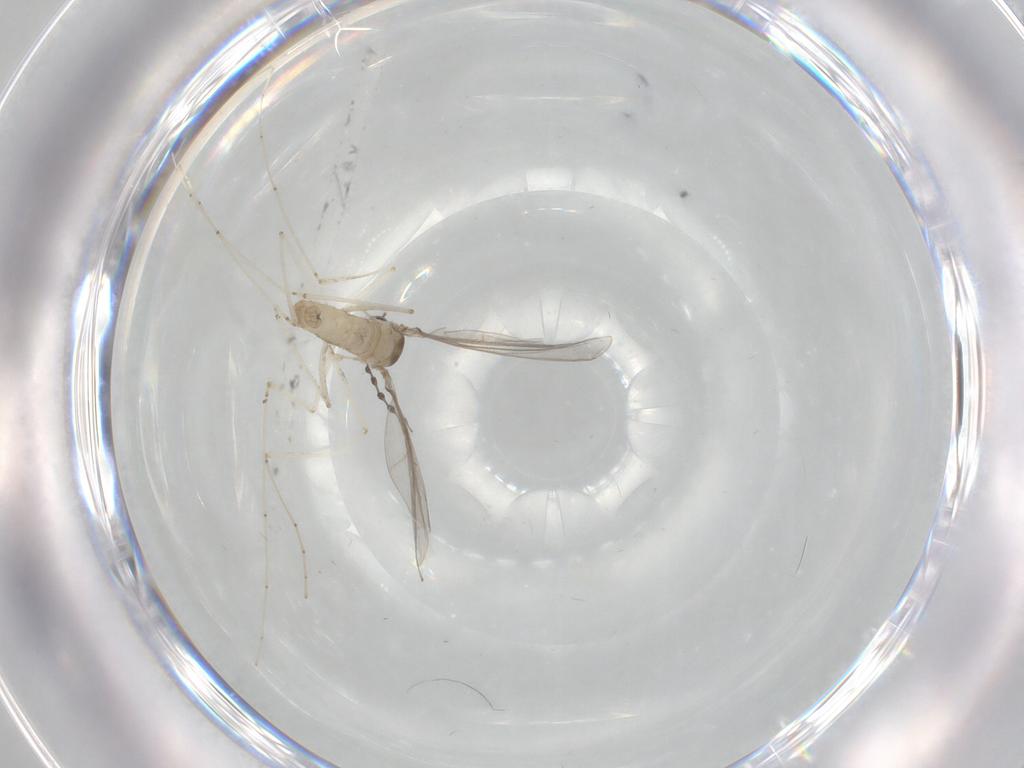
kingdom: Animalia
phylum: Arthropoda
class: Insecta
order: Diptera
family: Cecidomyiidae
